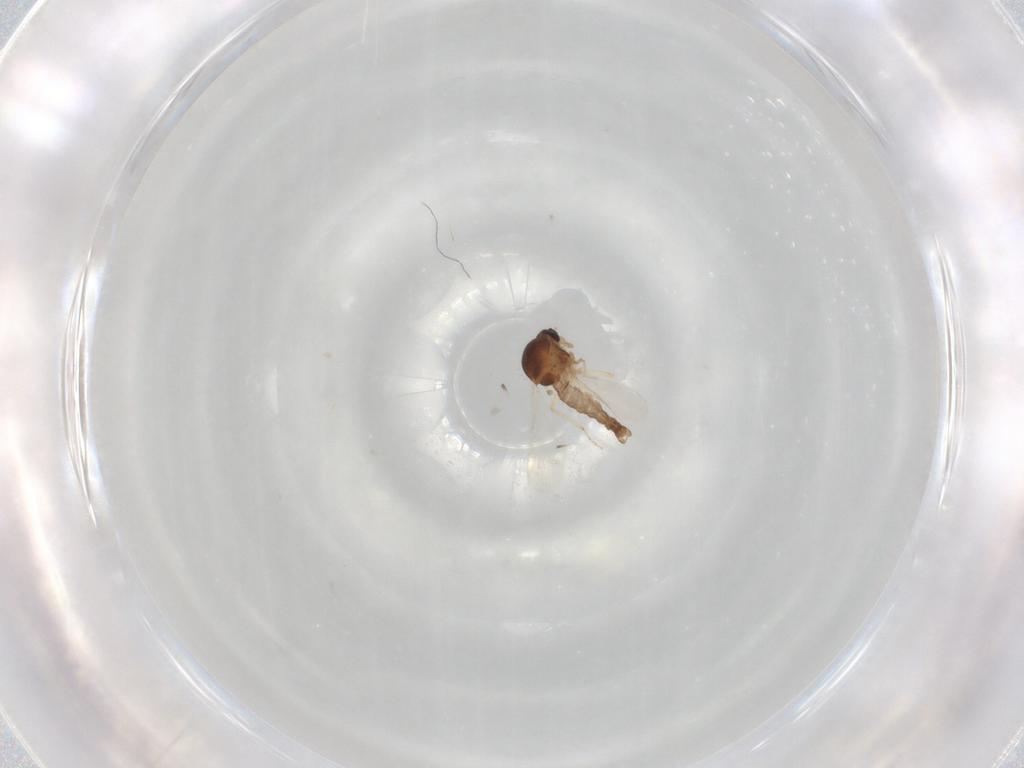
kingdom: Animalia
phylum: Arthropoda
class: Insecta
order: Diptera
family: Ceratopogonidae
